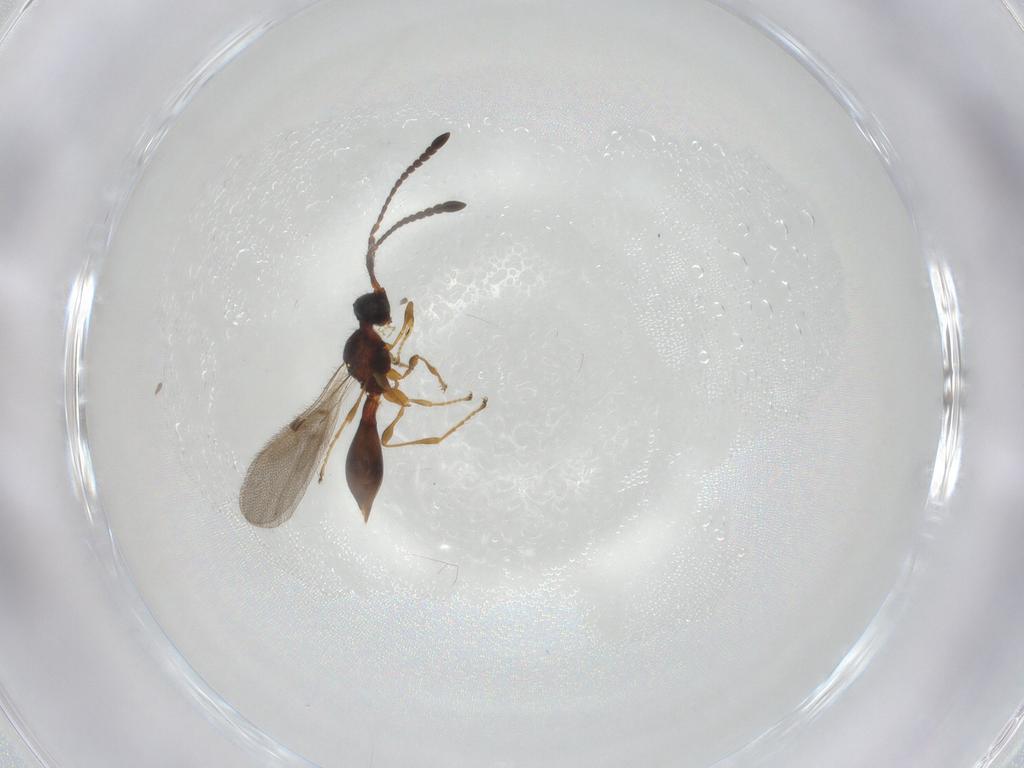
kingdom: Animalia
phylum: Arthropoda
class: Insecta
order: Hymenoptera
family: Diapriidae
